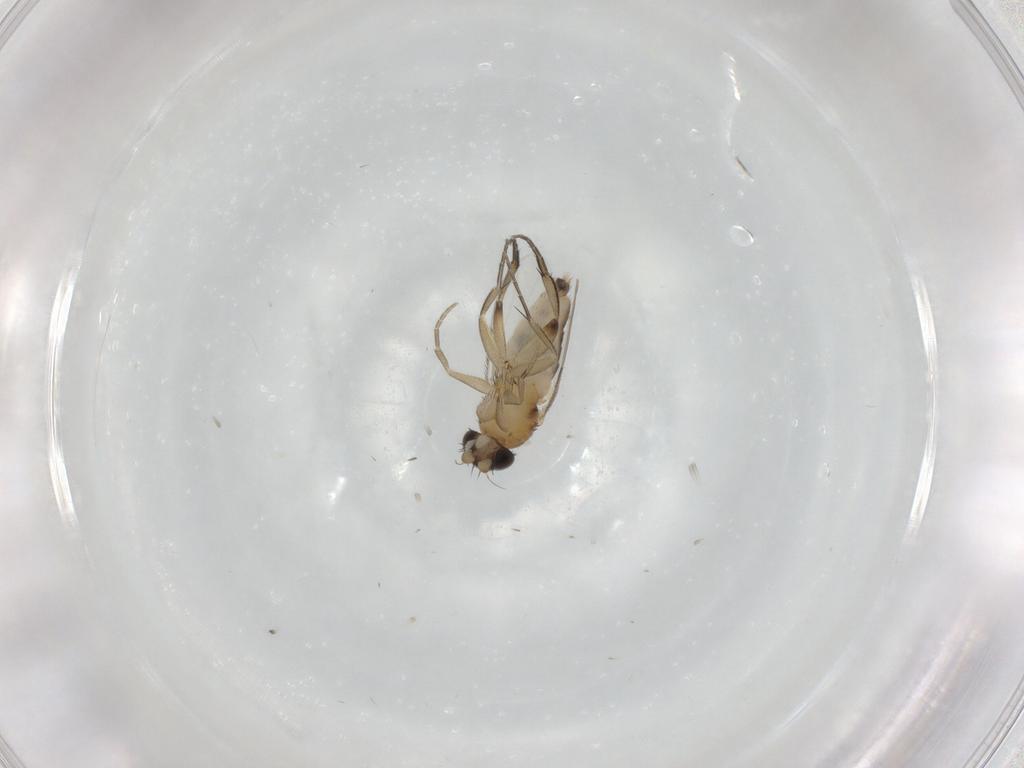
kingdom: Animalia
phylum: Arthropoda
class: Insecta
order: Diptera
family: Phoridae
